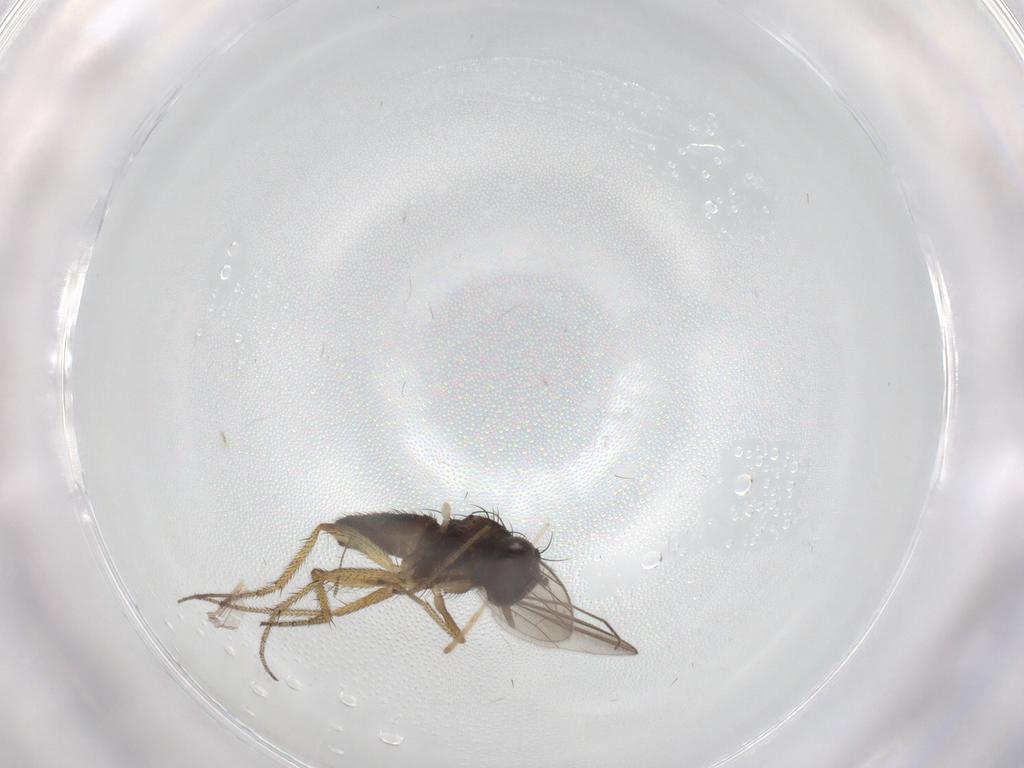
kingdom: Animalia
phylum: Arthropoda
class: Insecta
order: Diptera
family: Chironomidae
